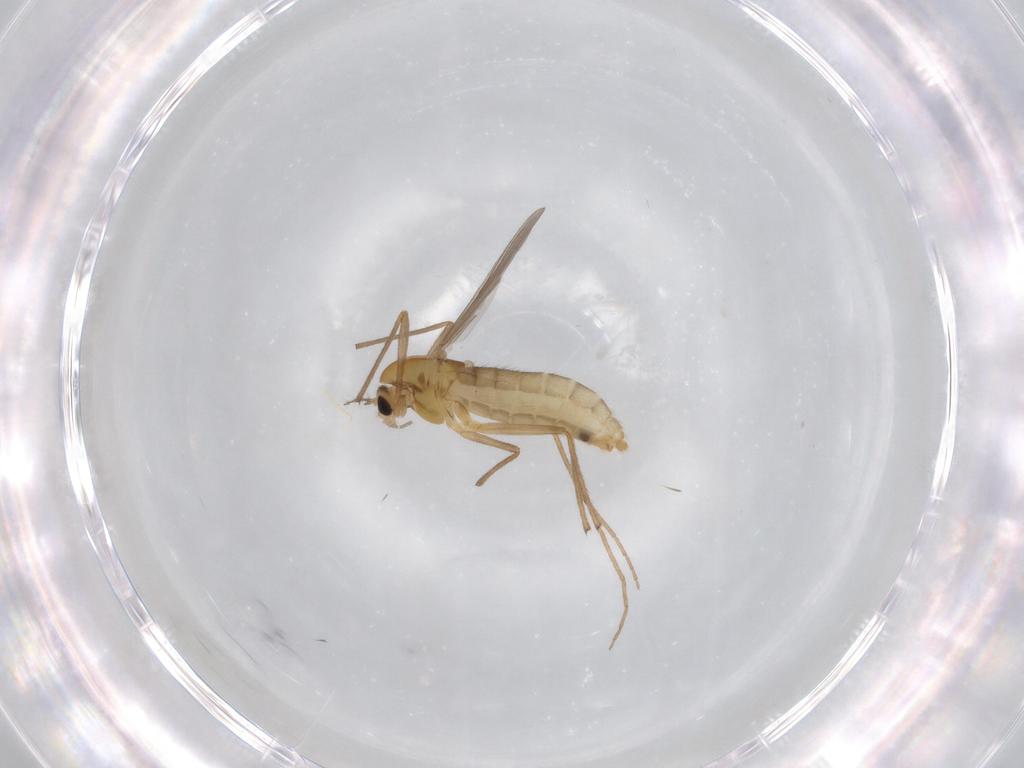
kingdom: Animalia
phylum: Arthropoda
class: Insecta
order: Diptera
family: Chironomidae
